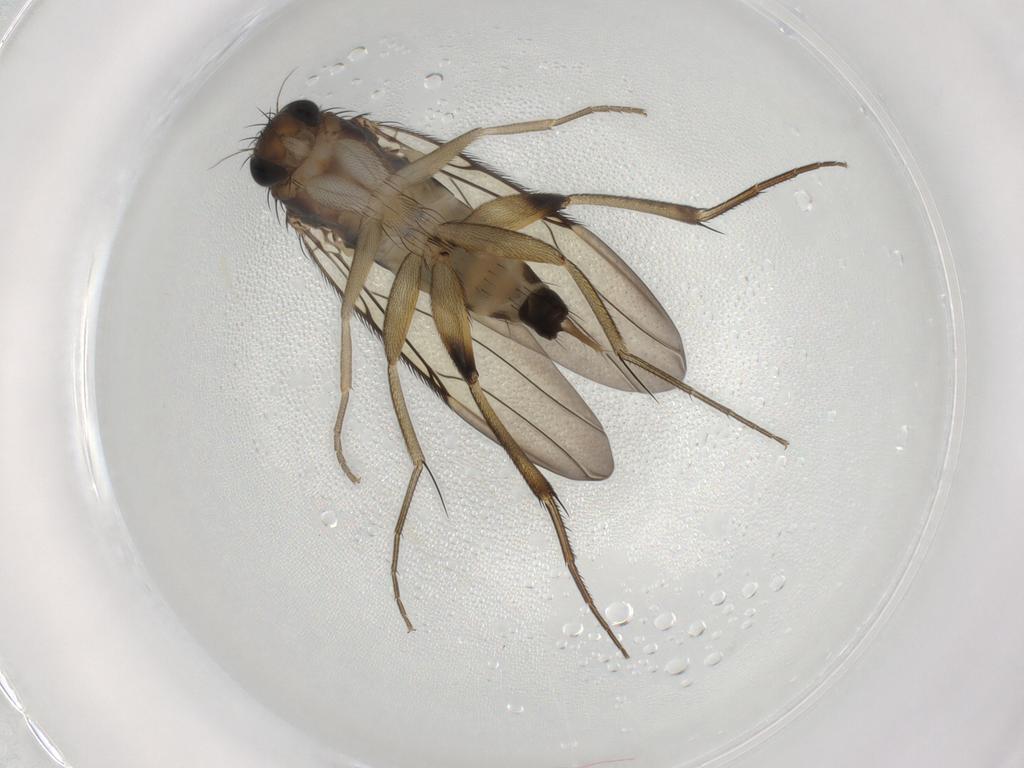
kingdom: Animalia
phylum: Arthropoda
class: Insecta
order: Diptera
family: Phoridae
